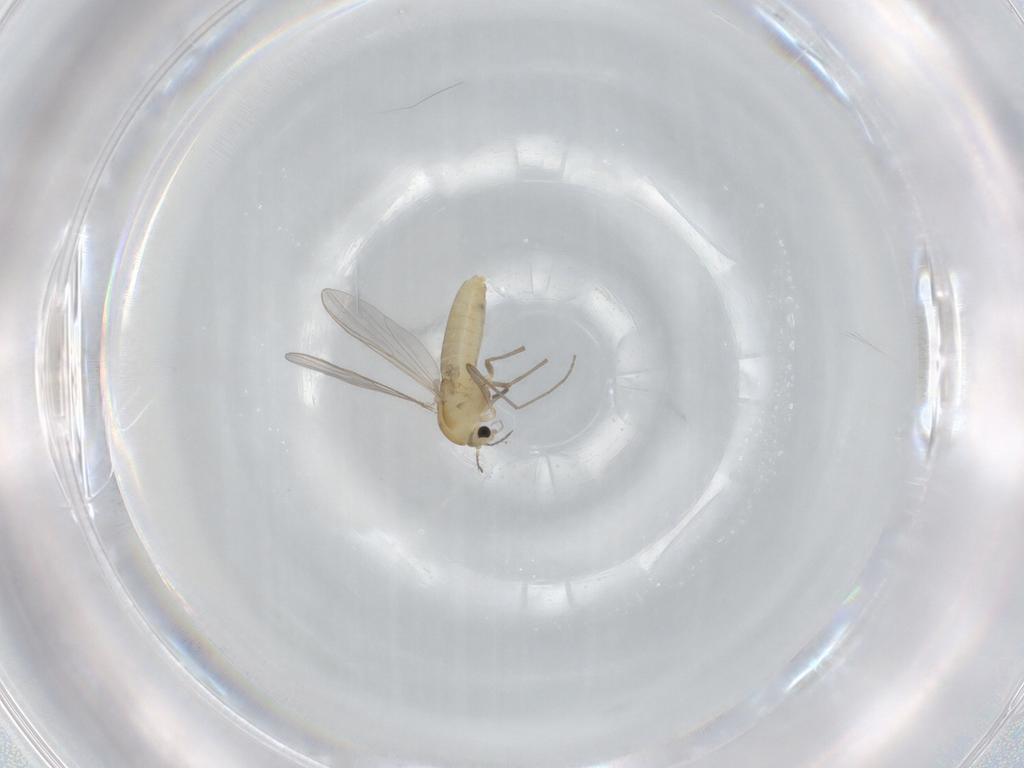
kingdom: Animalia
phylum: Arthropoda
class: Insecta
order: Diptera
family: Chironomidae
